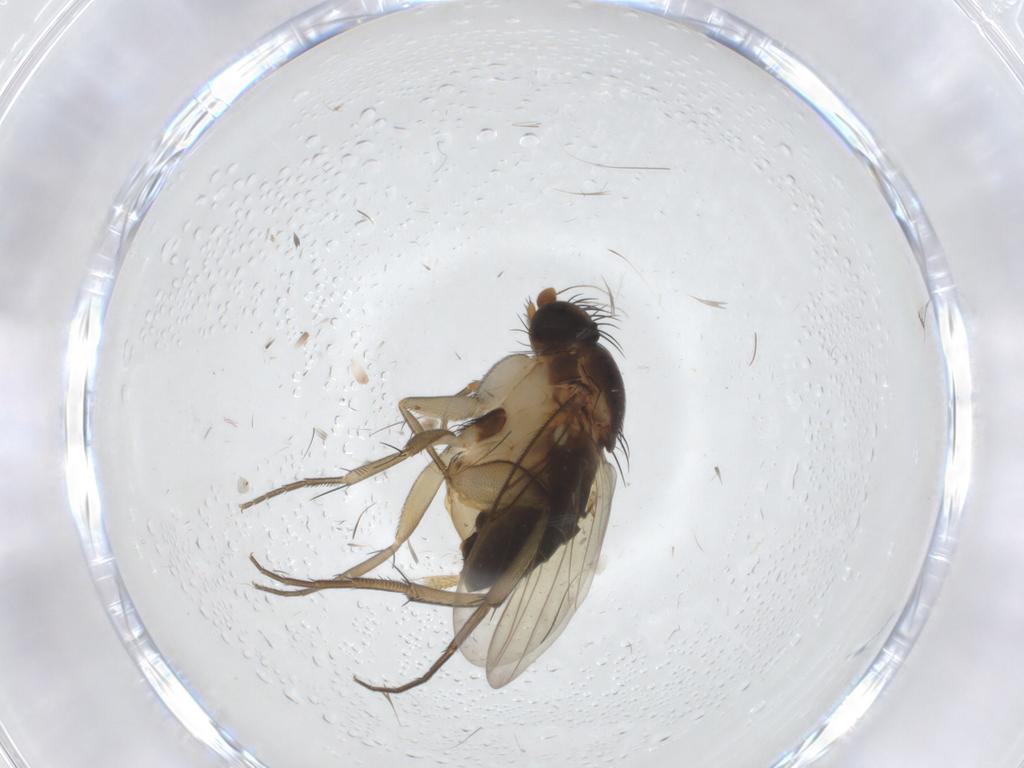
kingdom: Animalia
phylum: Arthropoda
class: Insecta
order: Diptera
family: Phoridae
